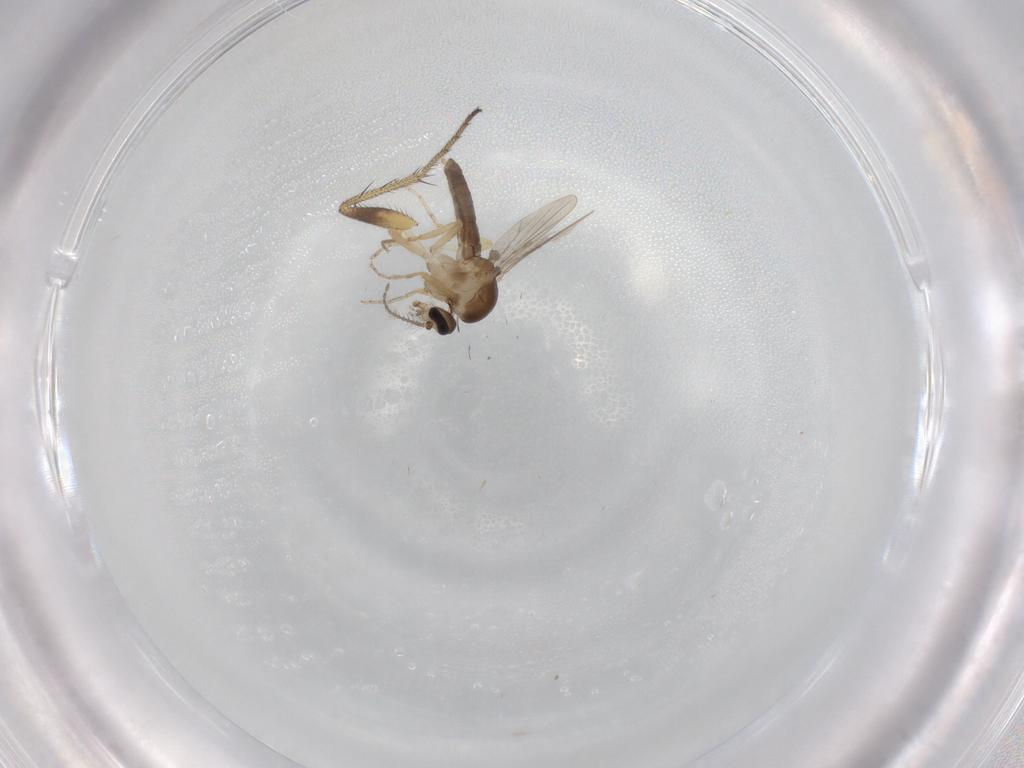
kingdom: Animalia
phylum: Arthropoda
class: Insecta
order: Diptera
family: Ceratopogonidae
